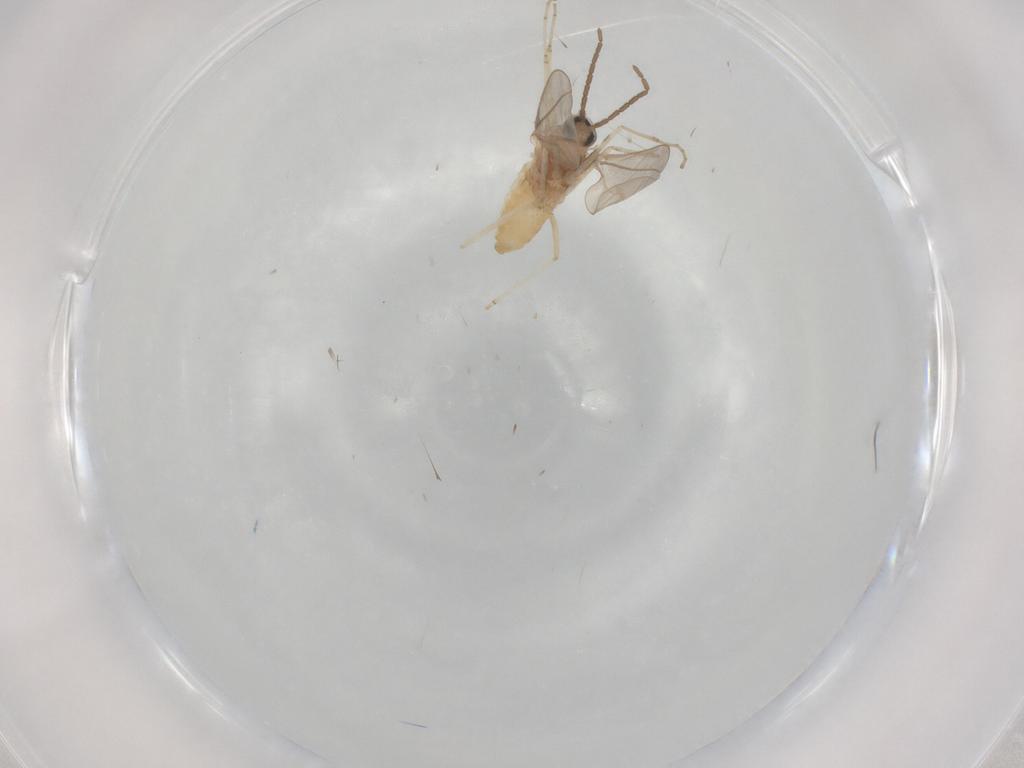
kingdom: Animalia
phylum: Arthropoda
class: Insecta
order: Diptera
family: Cecidomyiidae
